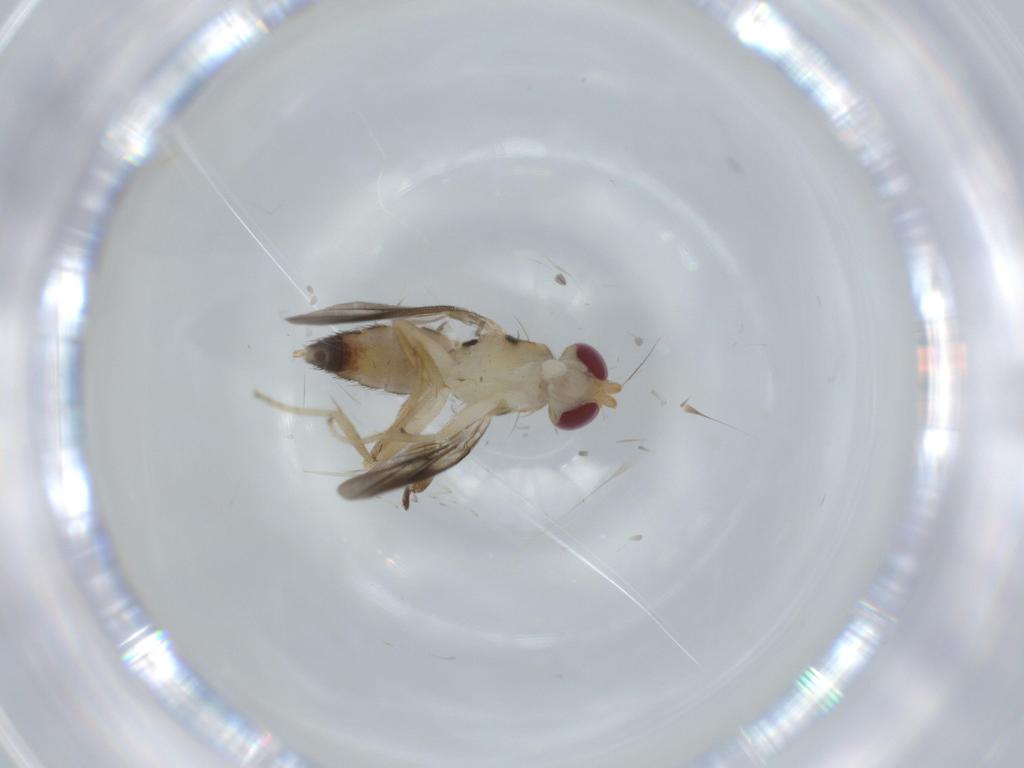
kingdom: Animalia
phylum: Arthropoda
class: Insecta
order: Diptera
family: Clusiidae
